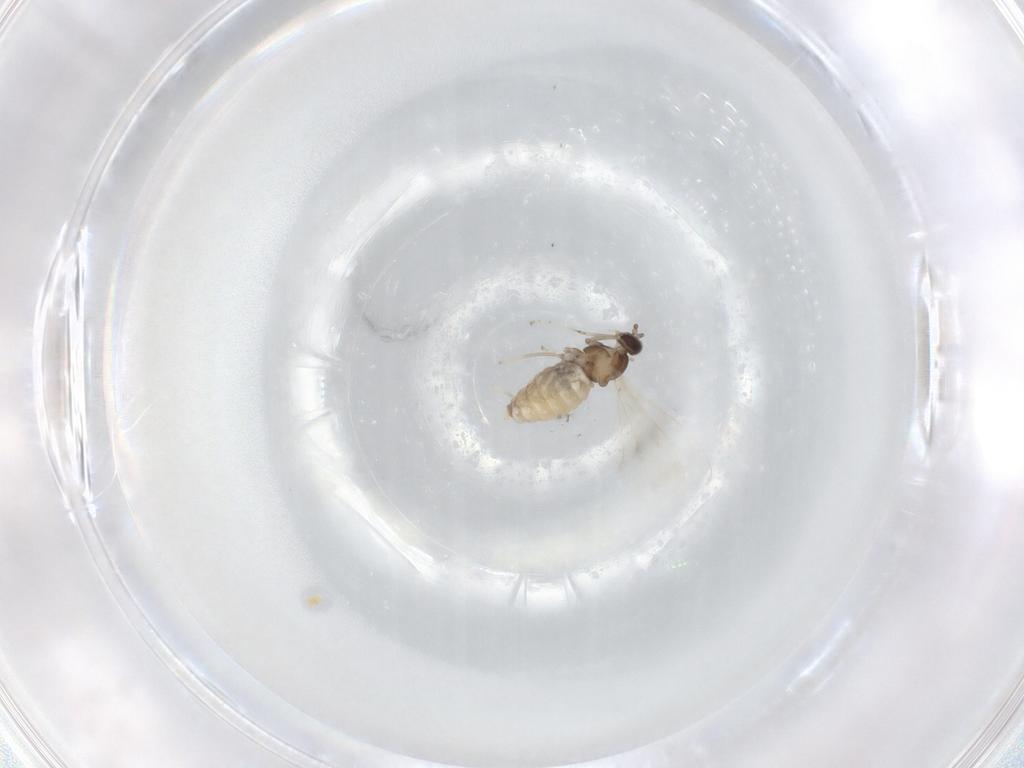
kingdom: Animalia
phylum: Arthropoda
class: Insecta
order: Diptera
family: Cecidomyiidae
